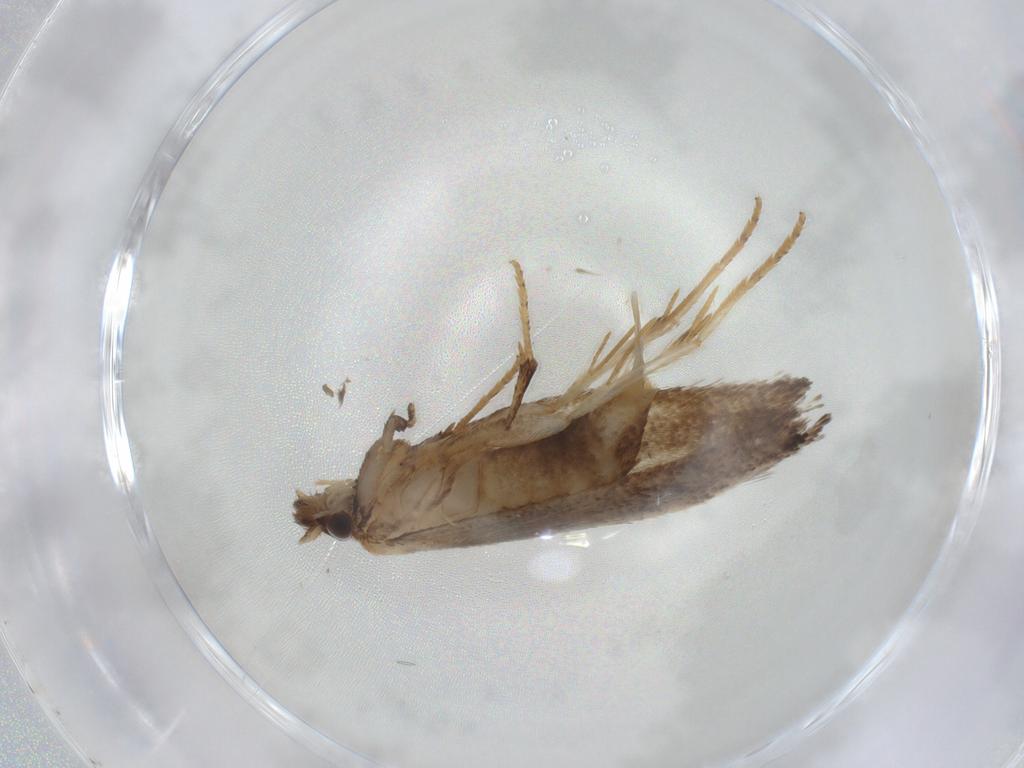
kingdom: Animalia
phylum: Arthropoda
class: Insecta
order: Lepidoptera
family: Nepticulidae
